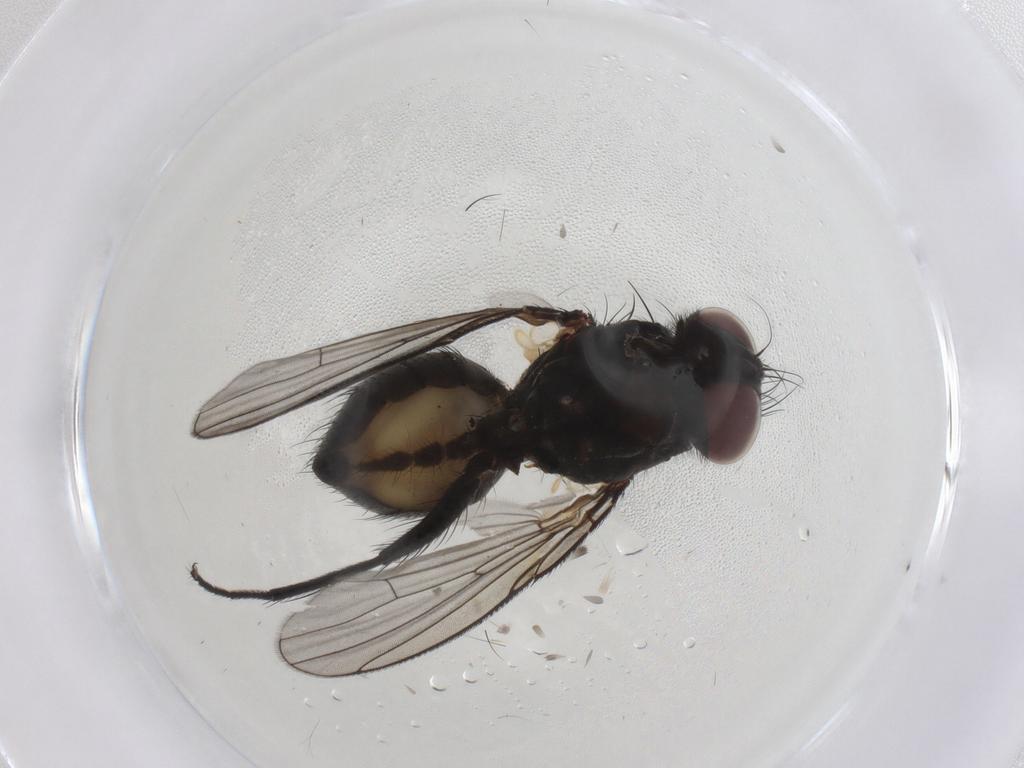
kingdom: Animalia
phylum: Arthropoda
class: Insecta
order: Diptera
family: Muscidae
